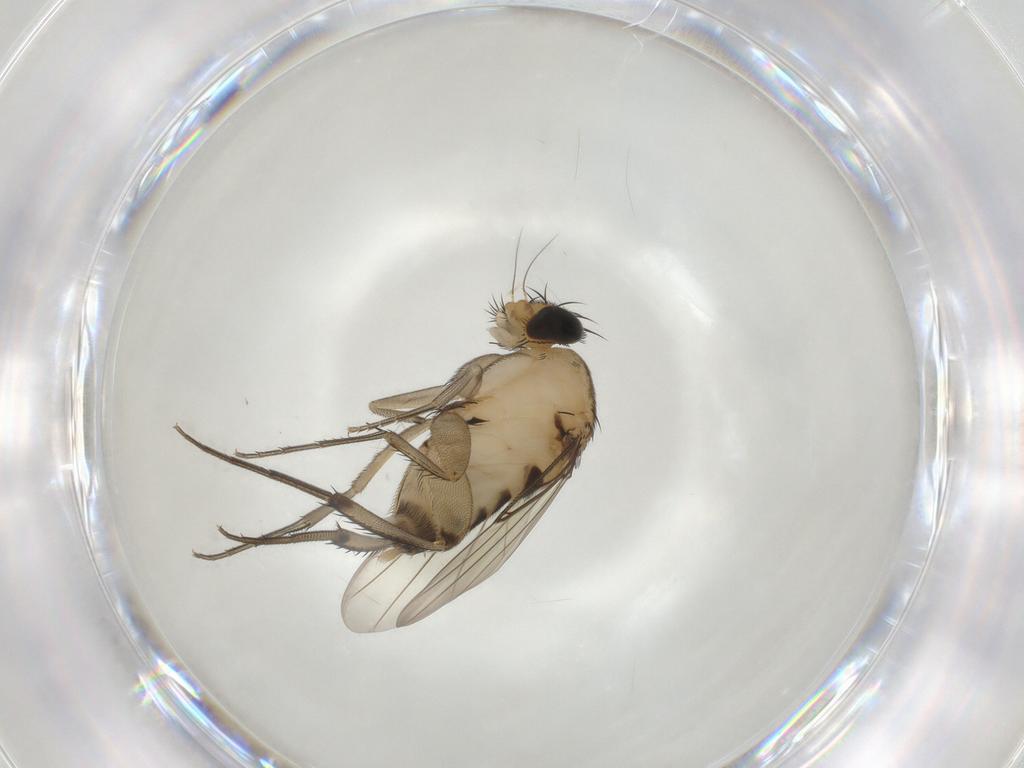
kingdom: Animalia
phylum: Arthropoda
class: Insecta
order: Diptera
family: Phoridae
